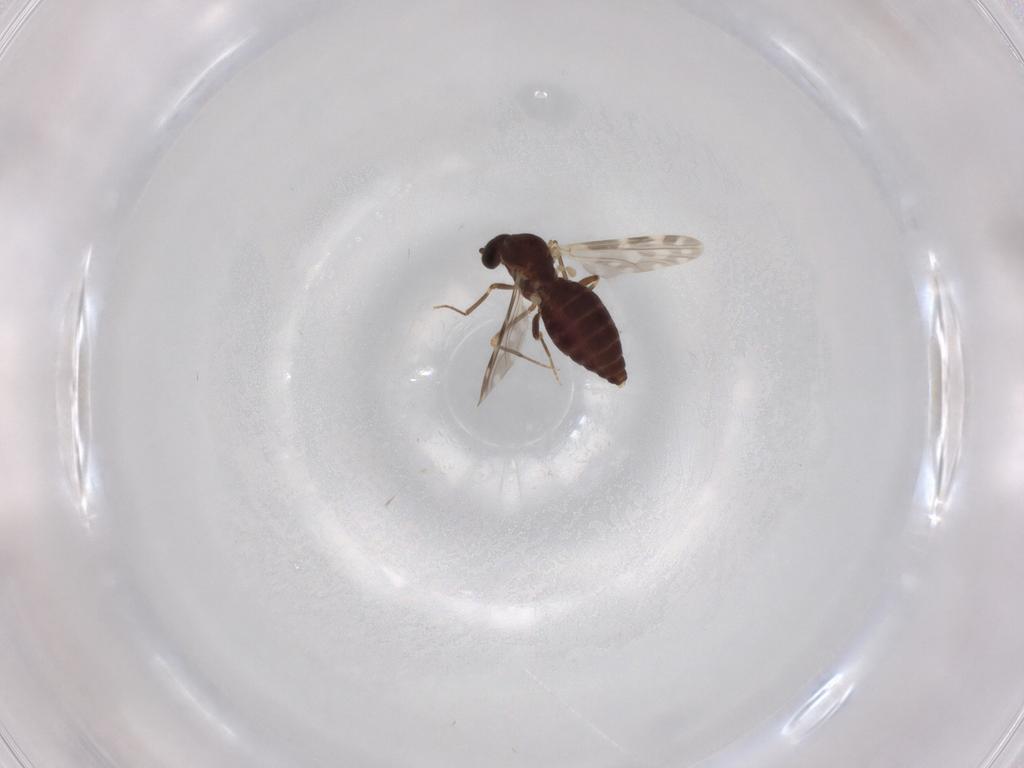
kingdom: Animalia
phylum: Arthropoda
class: Insecta
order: Diptera
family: Ceratopogonidae
